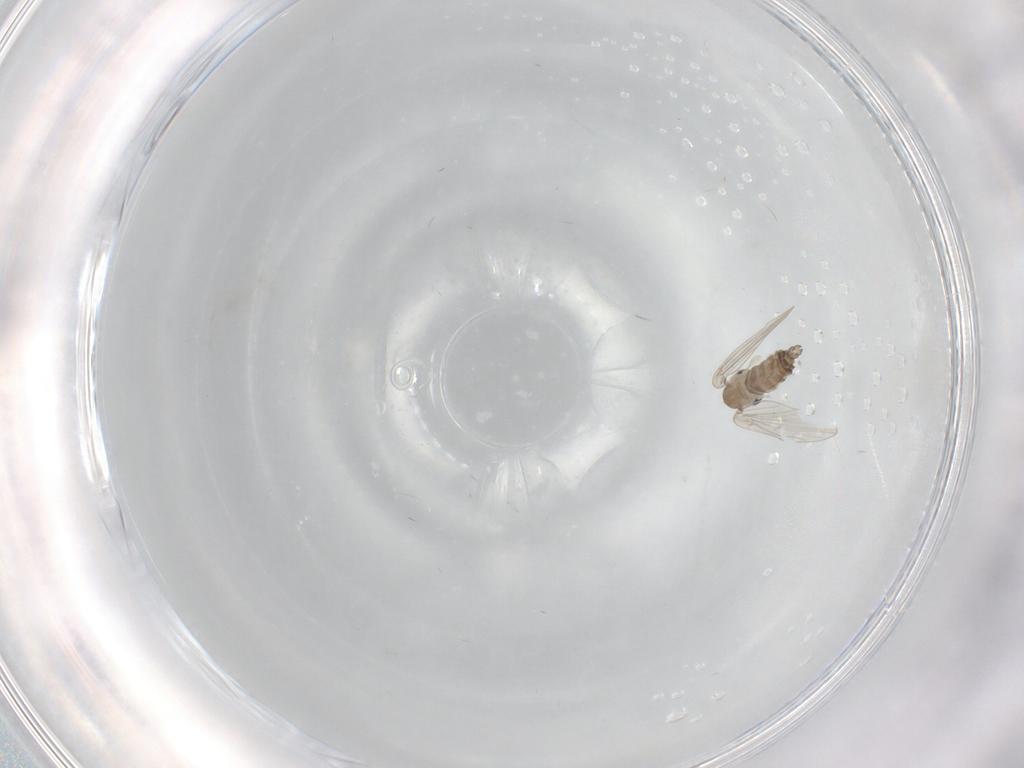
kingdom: Animalia
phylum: Arthropoda
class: Insecta
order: Diptera
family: Psychodidae
